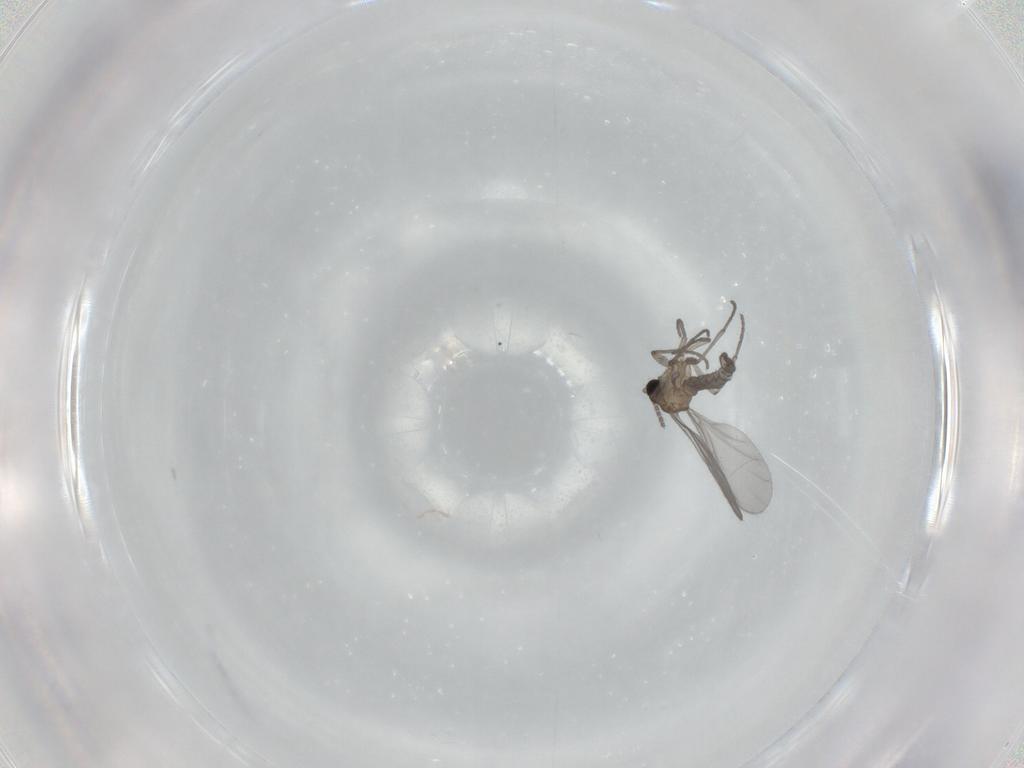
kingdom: Animalia
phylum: Arthropoda
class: Insecta
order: Diptera
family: Sciaridae
